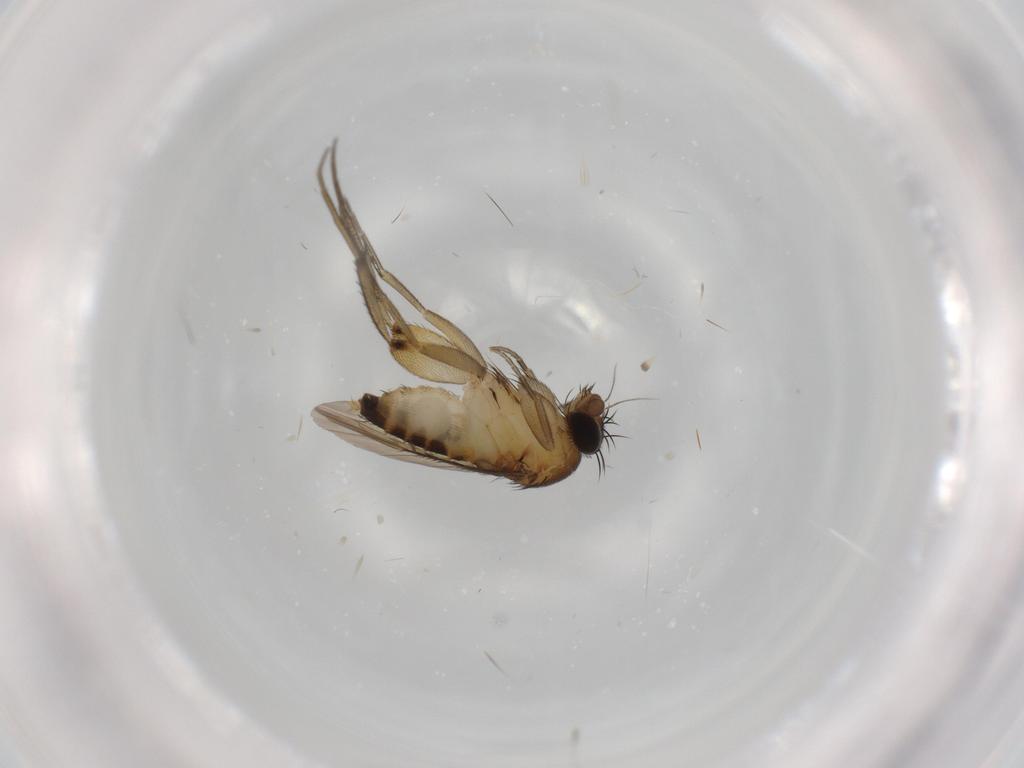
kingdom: Animalia
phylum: Arthropoda
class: Insecta
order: Diptera
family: Phoridae
